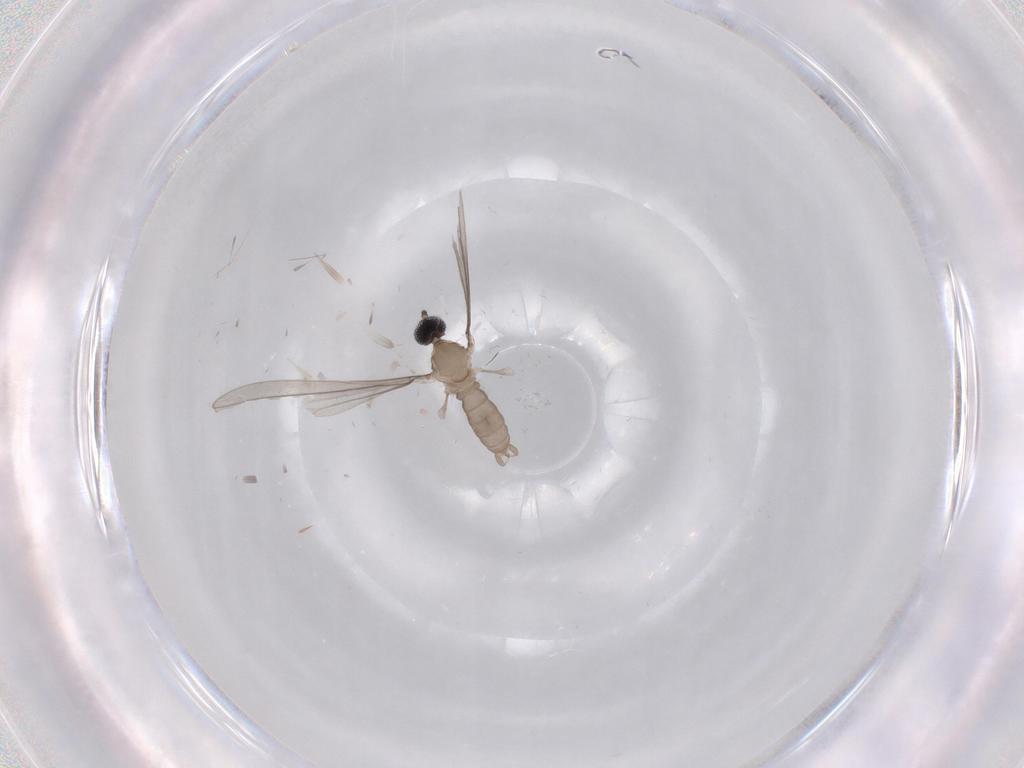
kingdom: Animalia
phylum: Arthropoda
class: Insecta
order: Diptera
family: Cecidomyiidae
